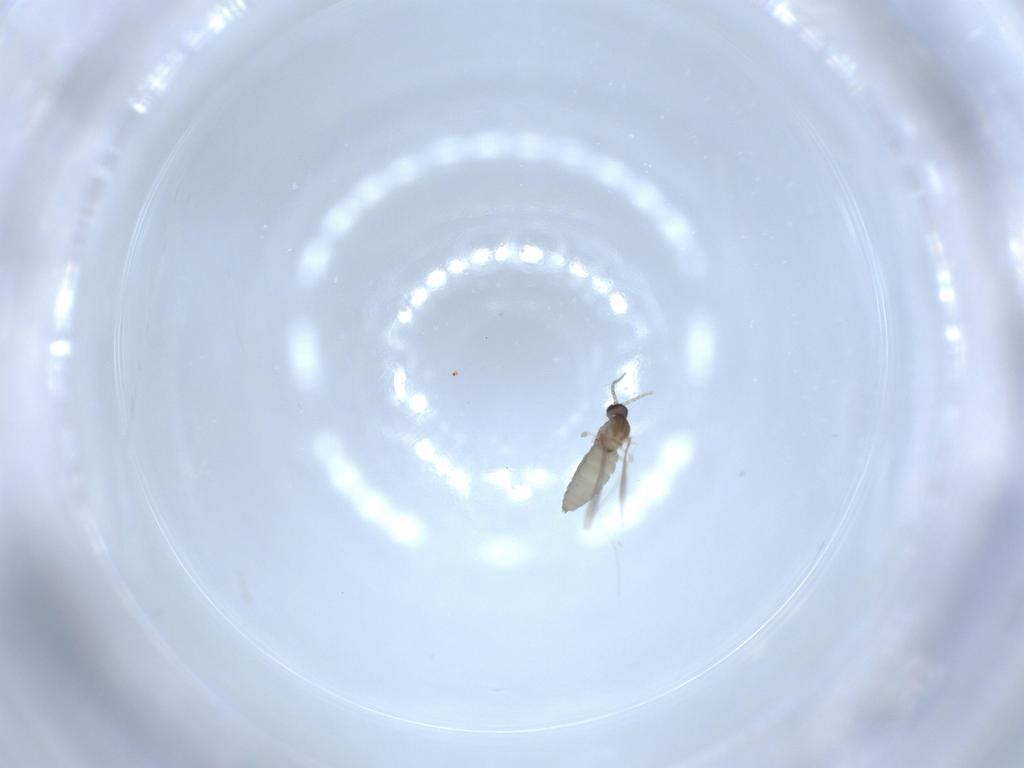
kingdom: Animalia
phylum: Arthropoda
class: Insecta
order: Diptera
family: Cecidomyiidae
